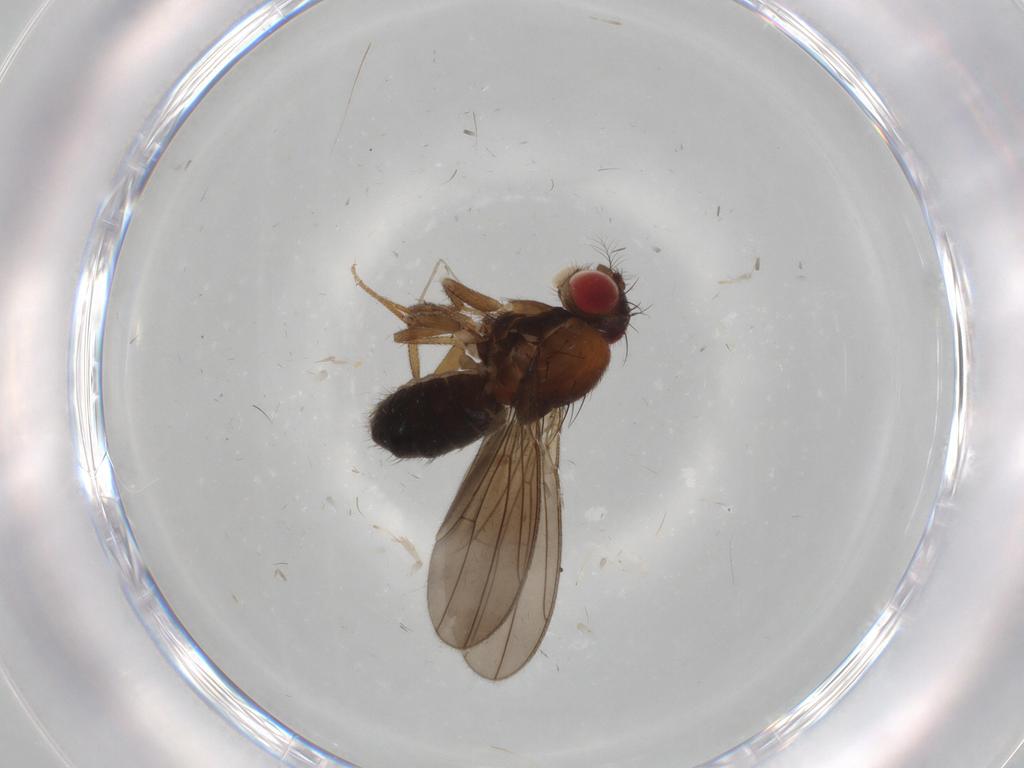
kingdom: Animalia
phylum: Arthropoda
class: Insecta
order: Diptera
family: Drosophilidae
